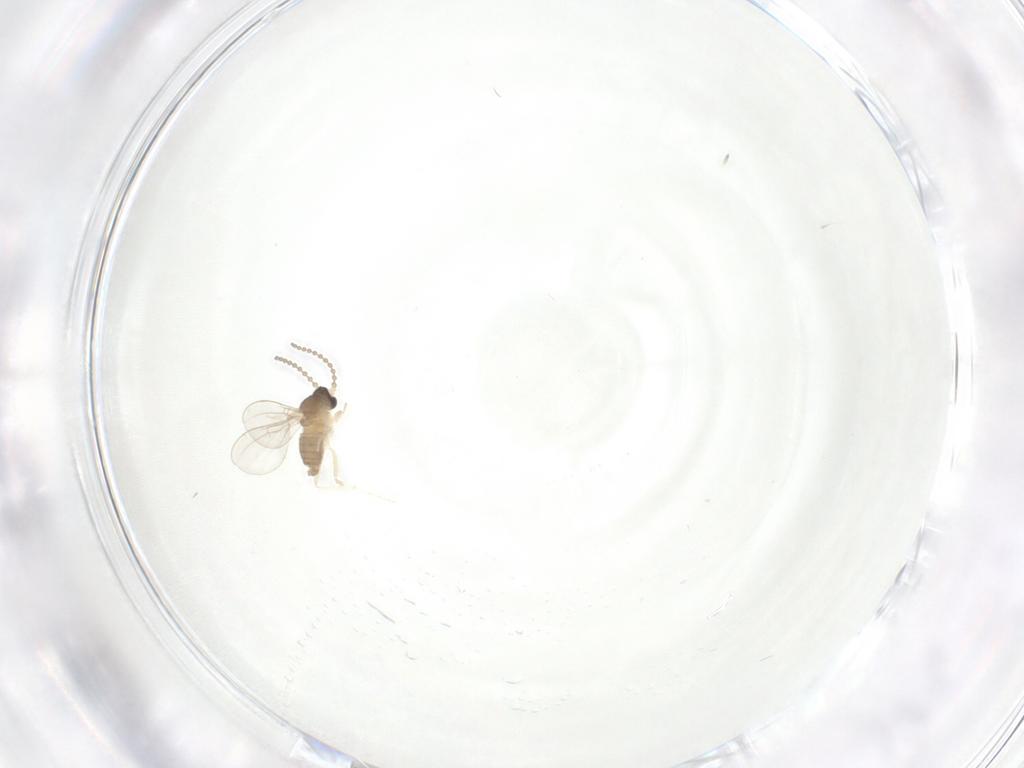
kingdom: Animalia
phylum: Arthropoda
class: Insecta
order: Diptera
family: Cecidomyiidae
